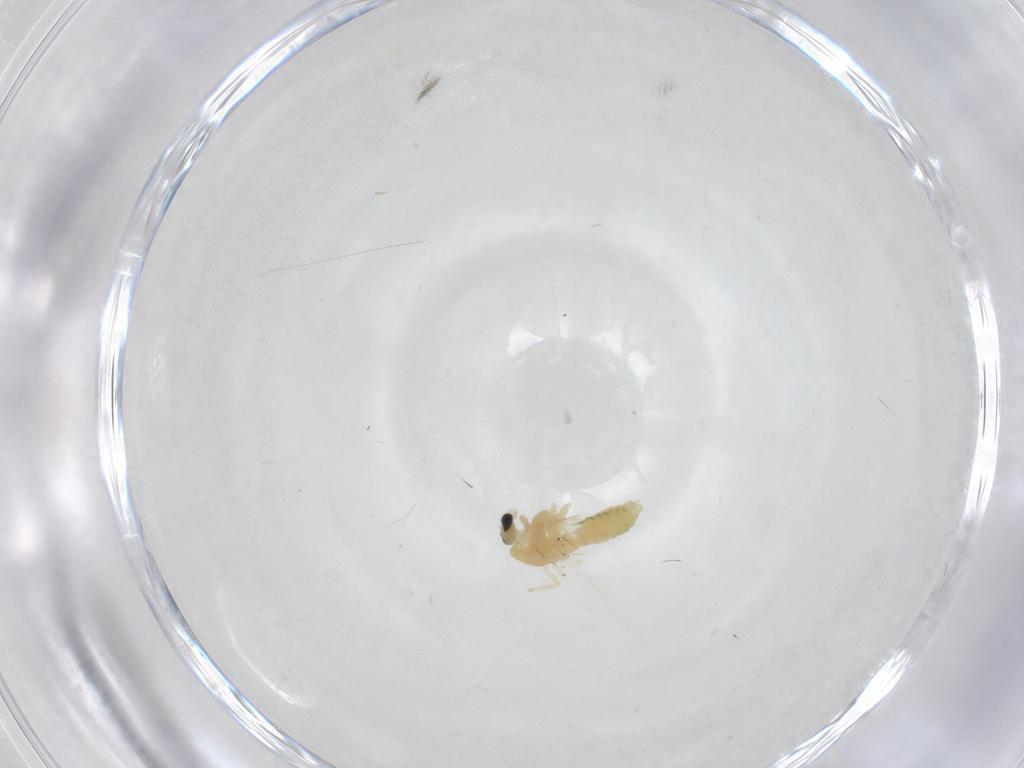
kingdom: Animalia
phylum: Arthropoda
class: Insecta
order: Diptera
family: Chironomidae
